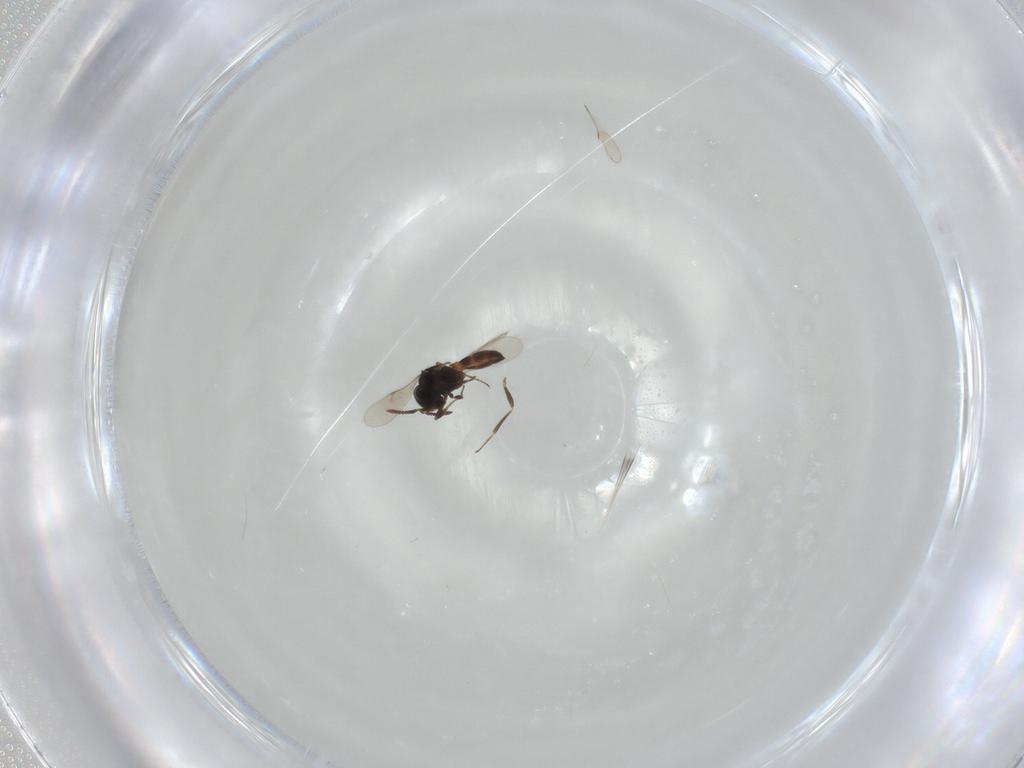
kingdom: Animalia
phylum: Arthropoda
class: Insecta
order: Hymenoptera
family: Scelionidae
